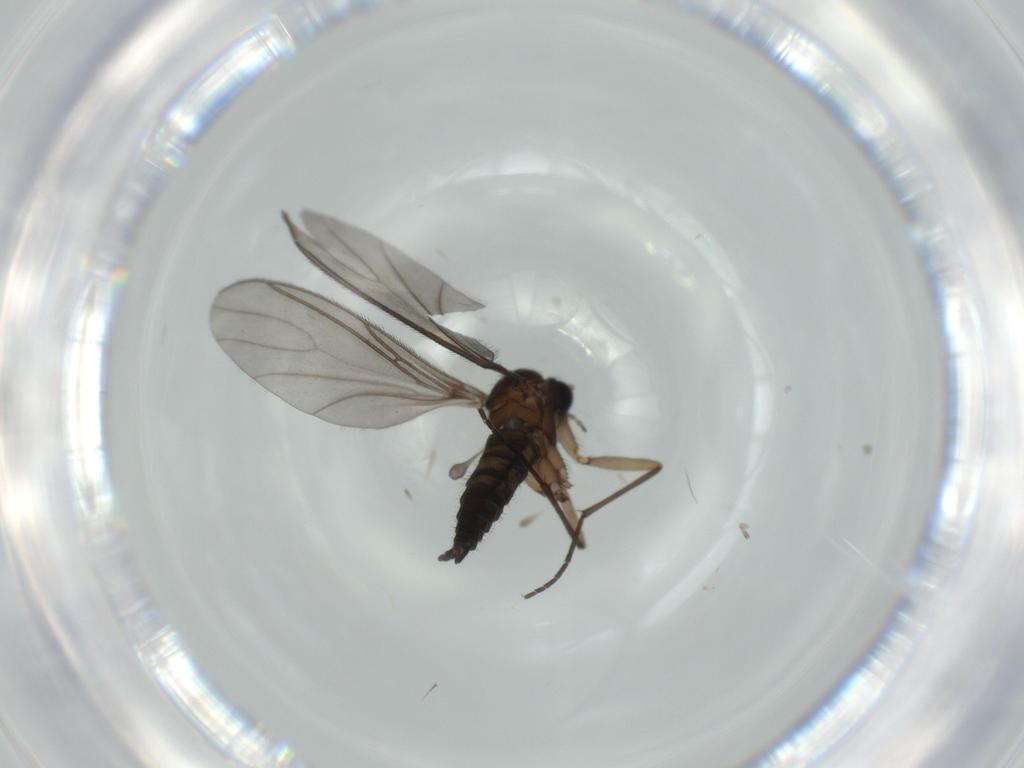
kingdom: Animalia
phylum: Arthropoda
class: Insecta
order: Diptera
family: Sciaridae
